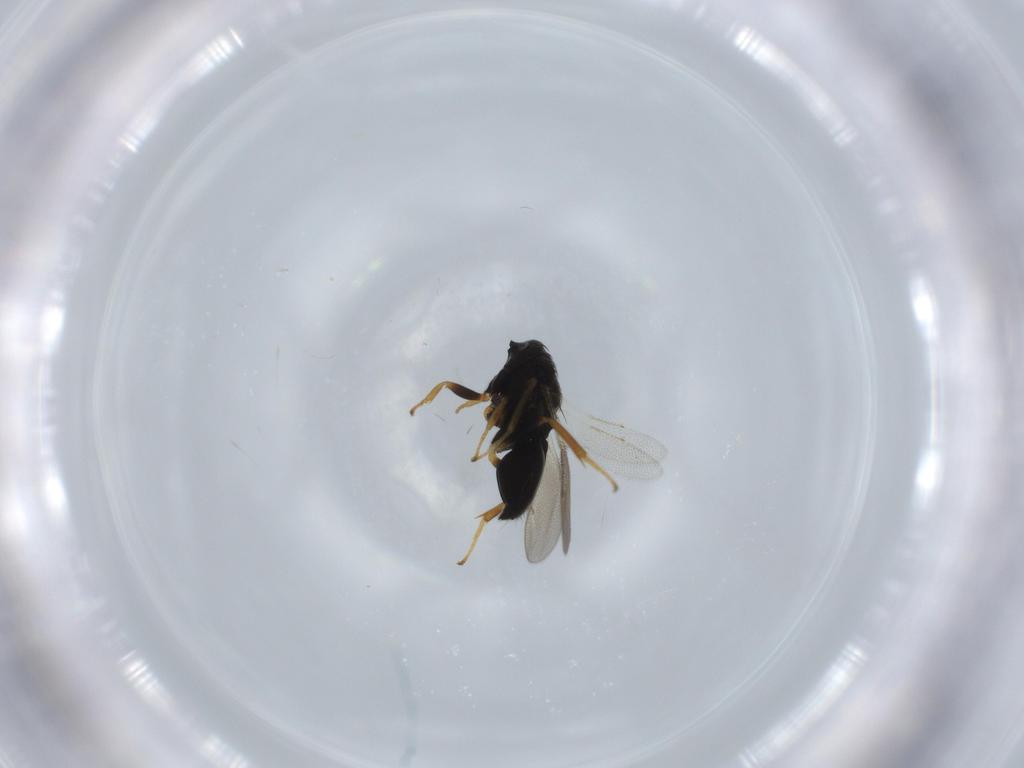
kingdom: Animalia
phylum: Arthropoda
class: Insecta
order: Hymenoptera
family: Pteromalidae
